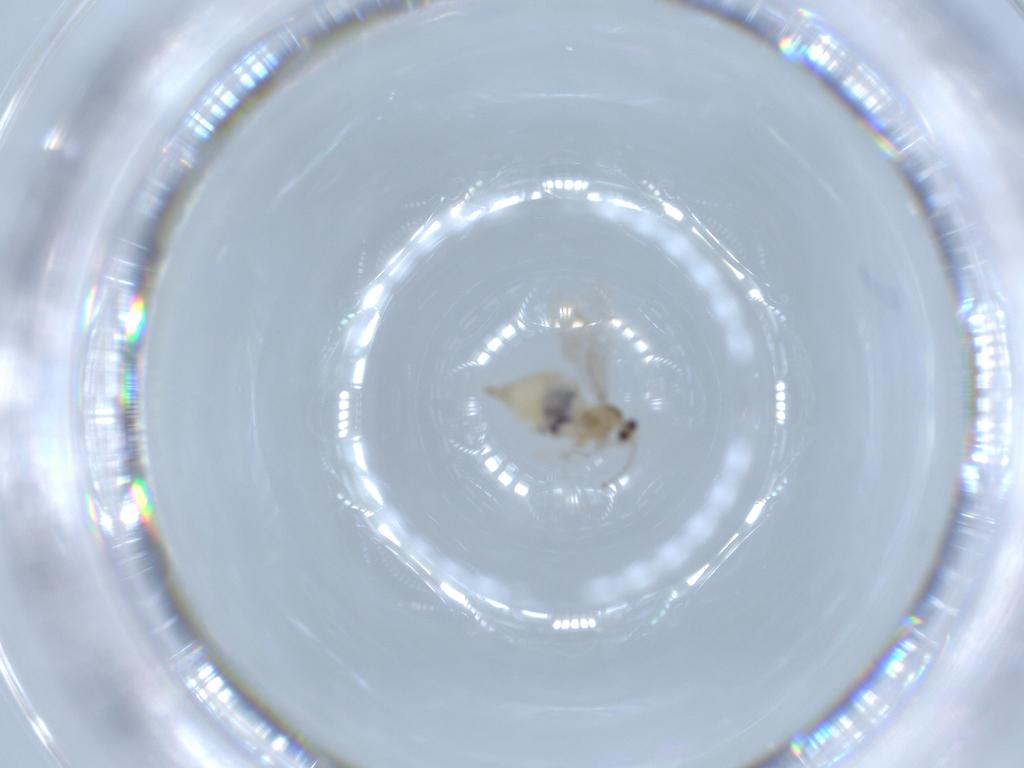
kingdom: Animalia
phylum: Arthropoda
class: Insecta
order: Diptera
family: Cecidomyiidae
